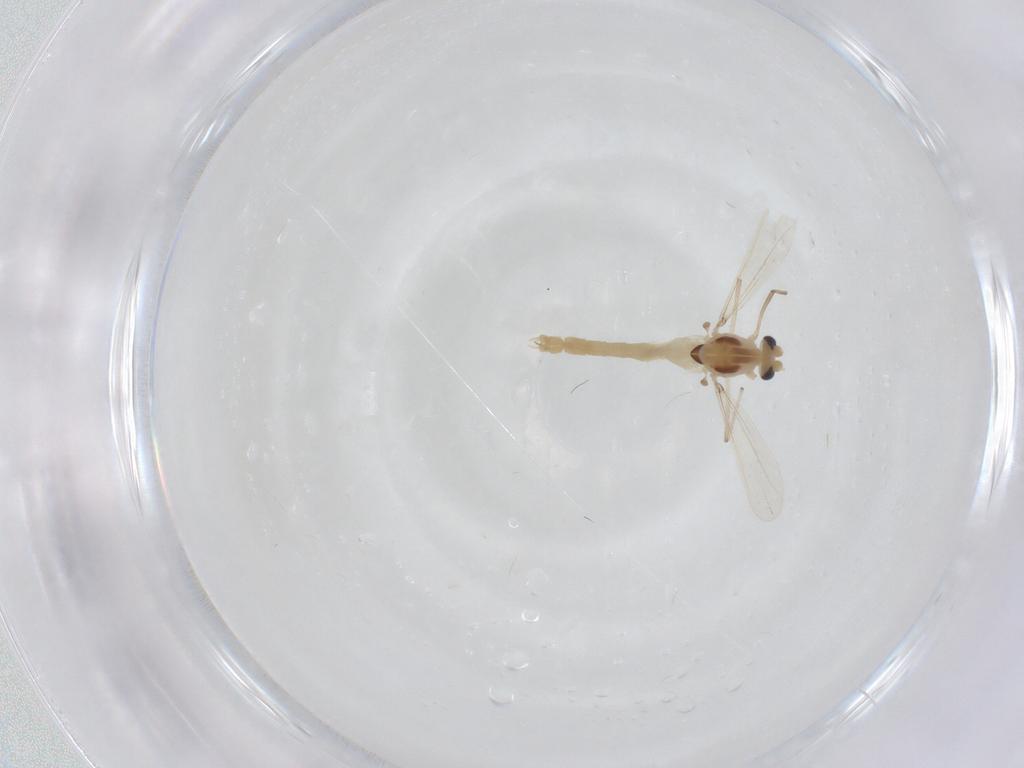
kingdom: Animalia
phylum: Arthropoda
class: Insecta
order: Diptera
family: Chironomidae
